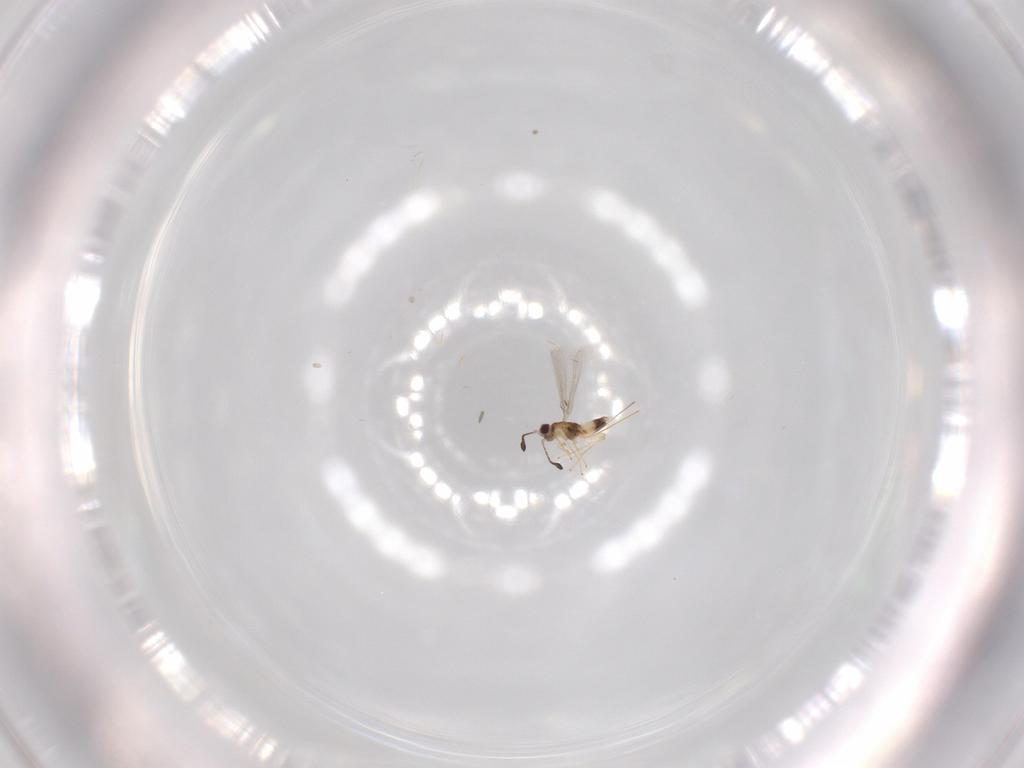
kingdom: Animalia
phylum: Arthropoda
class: Insecta
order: Hymenoptera
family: Mymaridae
